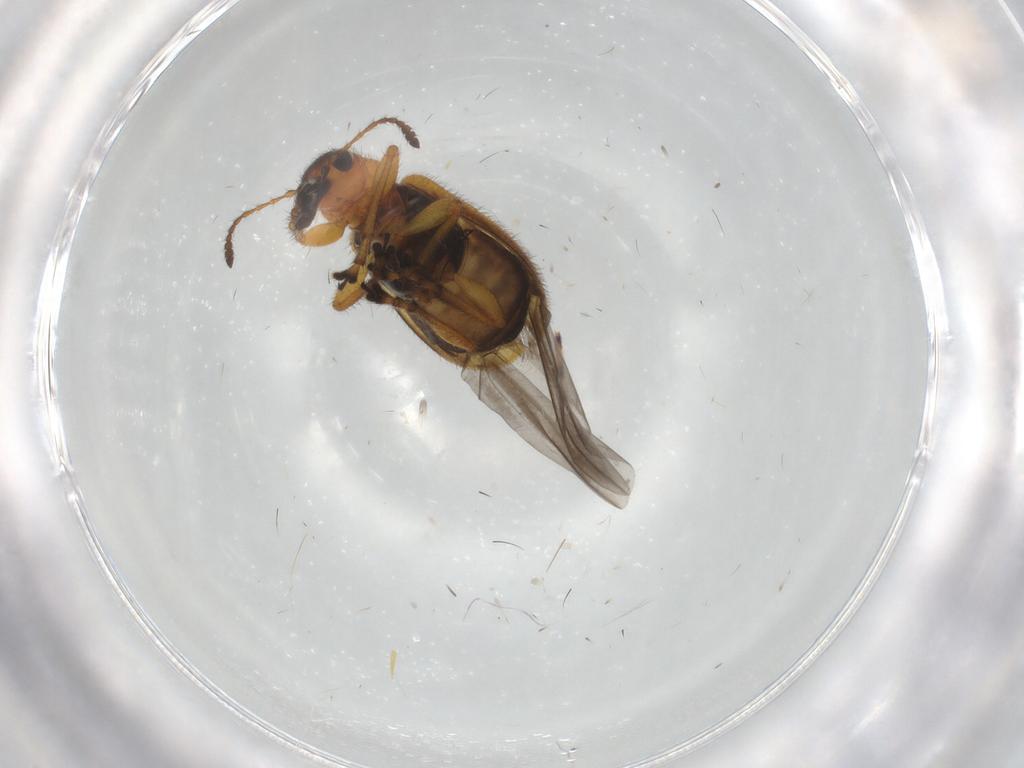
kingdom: Animalia
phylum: Arthropoda
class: Insecta
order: Coleoptera
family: Attelabidae
